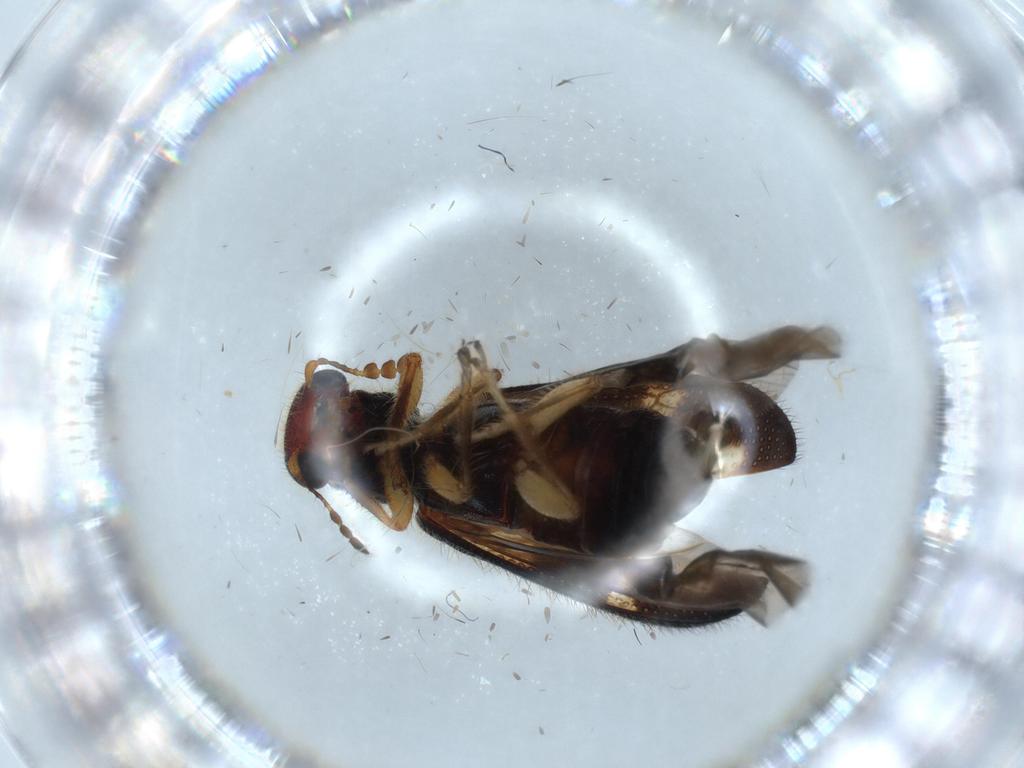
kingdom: Animalia
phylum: Arthropoda
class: Insecta
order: Coleoptera
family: Cleridae
